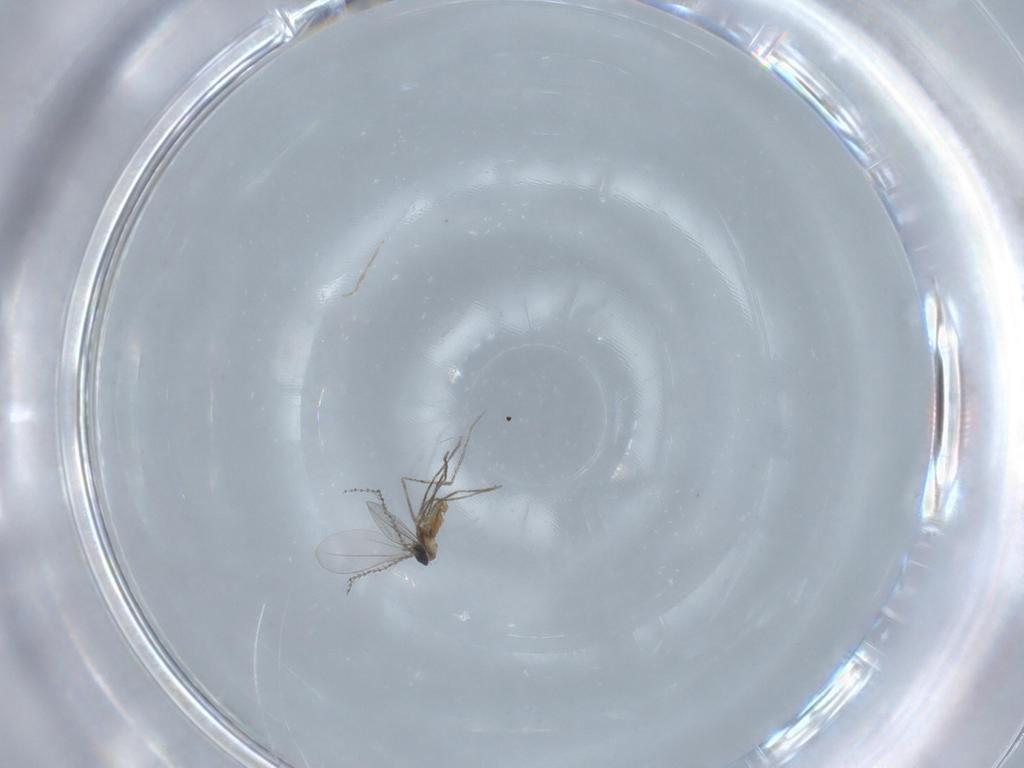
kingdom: Animalia
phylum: Arthropoda
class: Insecta
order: Diptera
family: Cecidomyiidae
